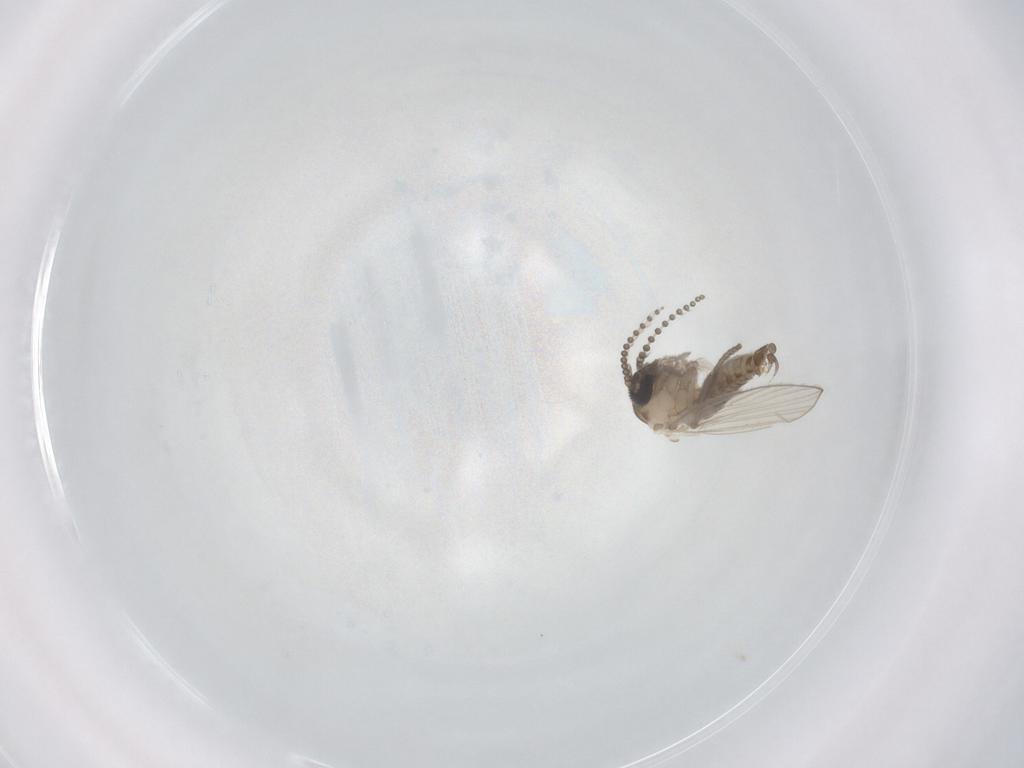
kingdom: Animalia
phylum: Arthropoda
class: Insecta
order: Diptera
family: Psychodidae
